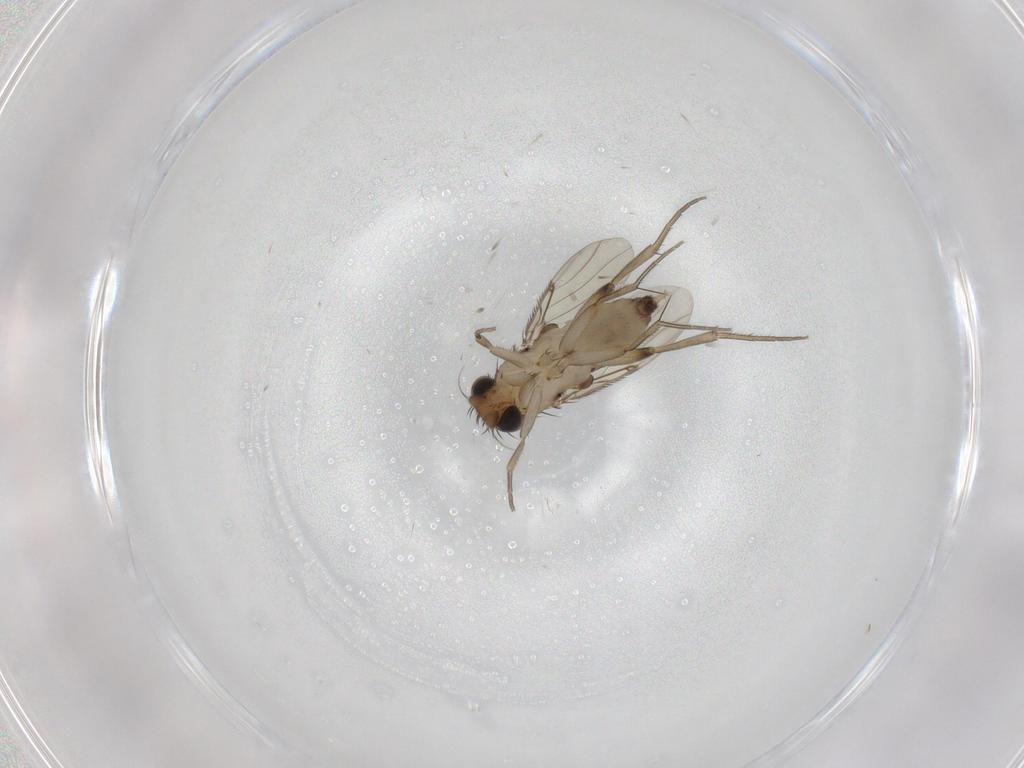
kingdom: Animalia
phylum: Arthropoda
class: Insecta
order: Diptera
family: Phoridae
